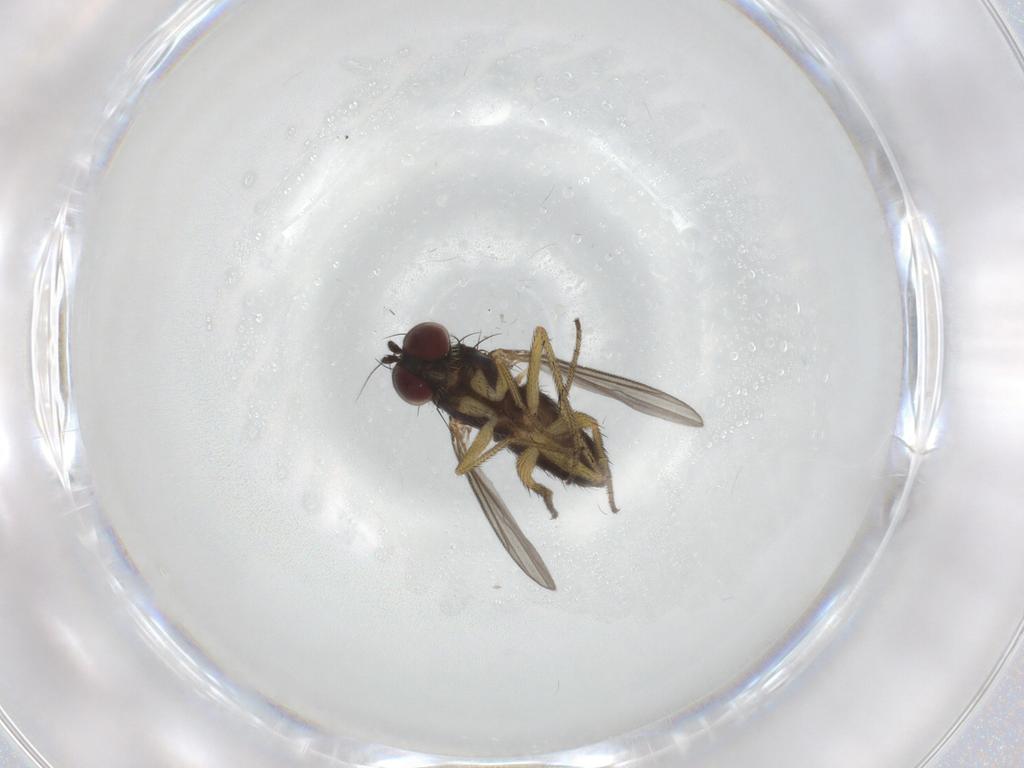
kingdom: Animalia
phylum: Arthropoda
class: Insecta
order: Diptera
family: Dolichopodidae
